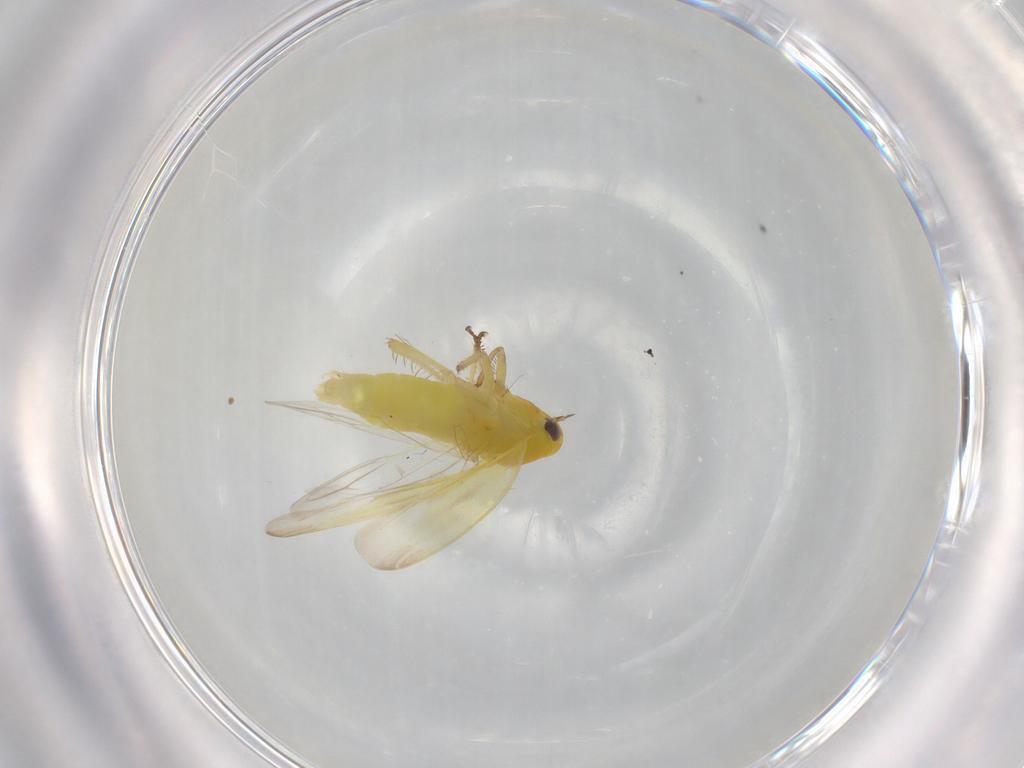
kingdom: Animalia
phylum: Arthropoda
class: Insecta
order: Hemiptera
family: Cicadellidae
